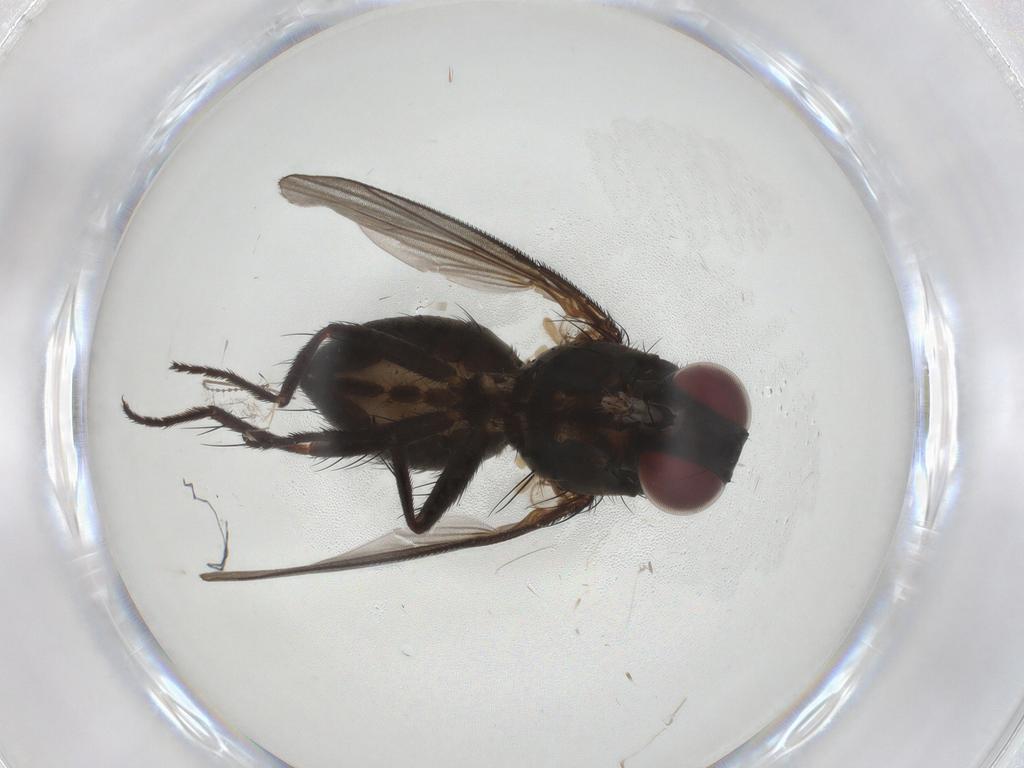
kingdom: Animalia
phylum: Arthropoda
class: Insecta
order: Diptera
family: Muscidae
